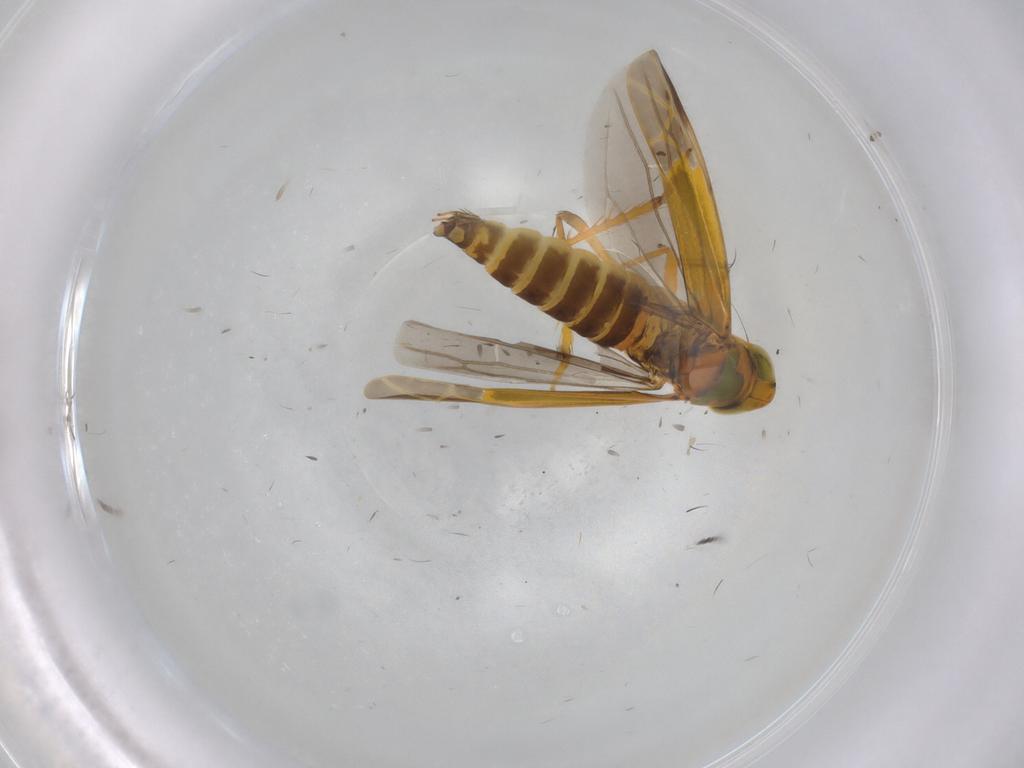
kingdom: Animalia
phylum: Arthropoda
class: Insecta
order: Hemiptera
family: Cicadellidae
